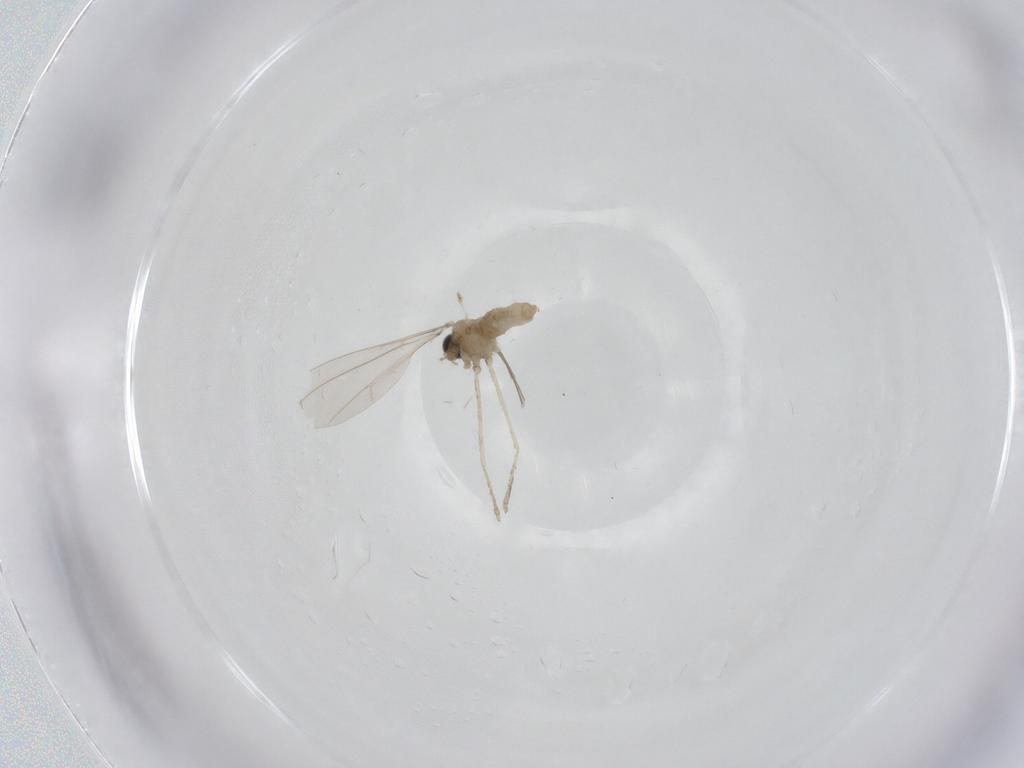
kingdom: Animalia
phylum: Arthropoda
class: Insecta
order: Diptera
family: Cecidomyiidae
